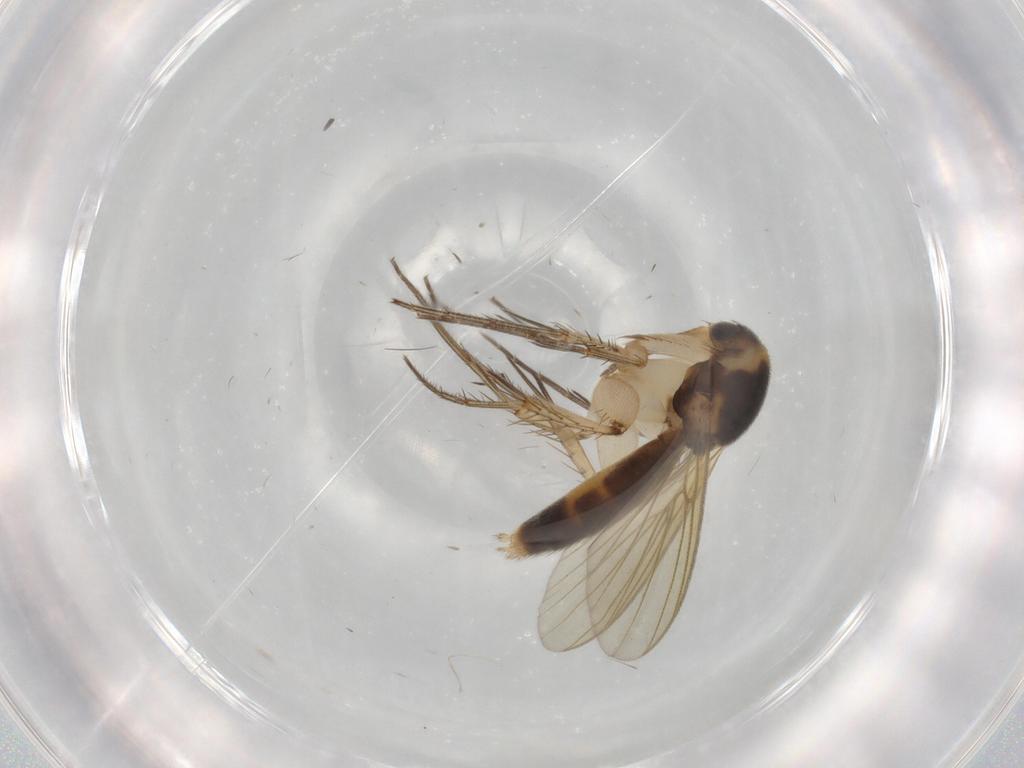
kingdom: Animalia
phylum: Arthropoda
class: Insecta
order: Diptera
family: Mycetophilidae
